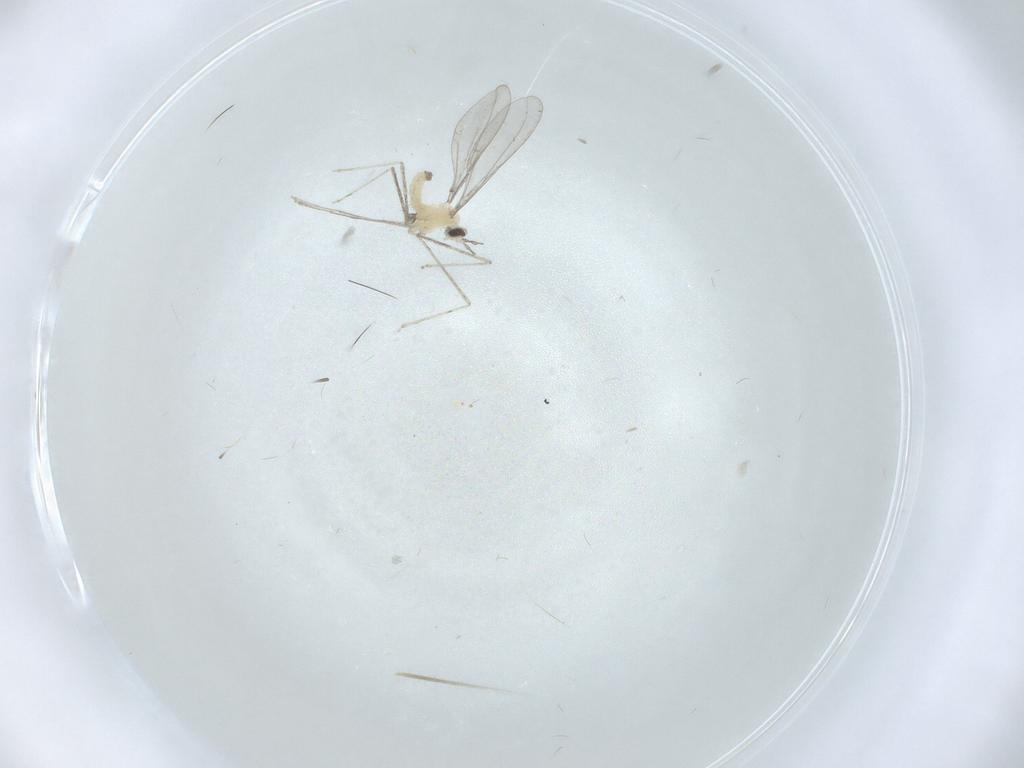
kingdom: Animalia
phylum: Arthropoda
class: Insecta
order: Diptera
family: Cecidomyiidae
